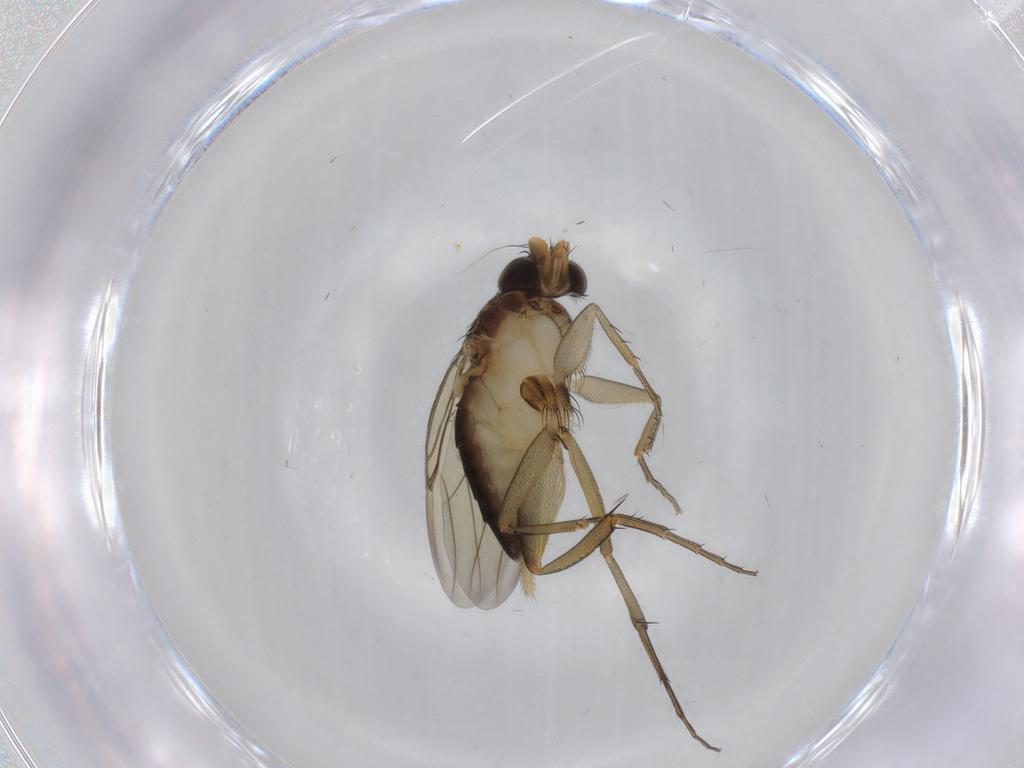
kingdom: Animalia
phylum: Arthropoda
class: Insecta
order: Diptera
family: Phoridae
